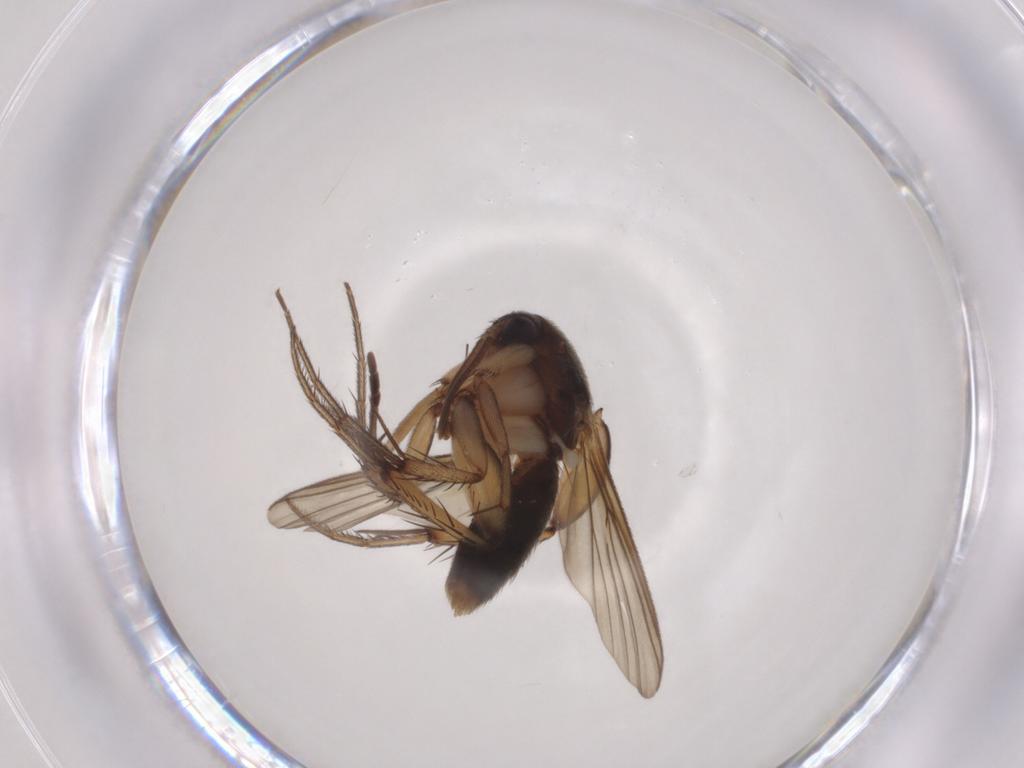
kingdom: Animalia
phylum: Arthropoda
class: Insecta
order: Diptera
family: Mycetophilidae
